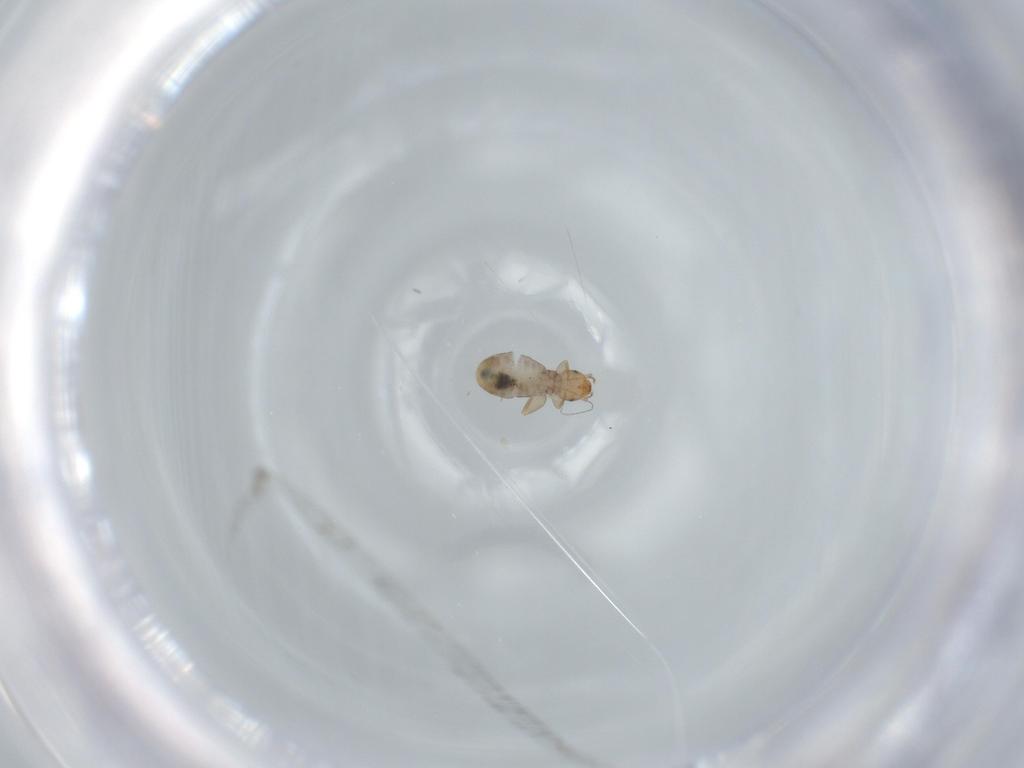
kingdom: Animalia
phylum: Arthropoda
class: Insecta
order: Psocodea
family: Liposcelididae
